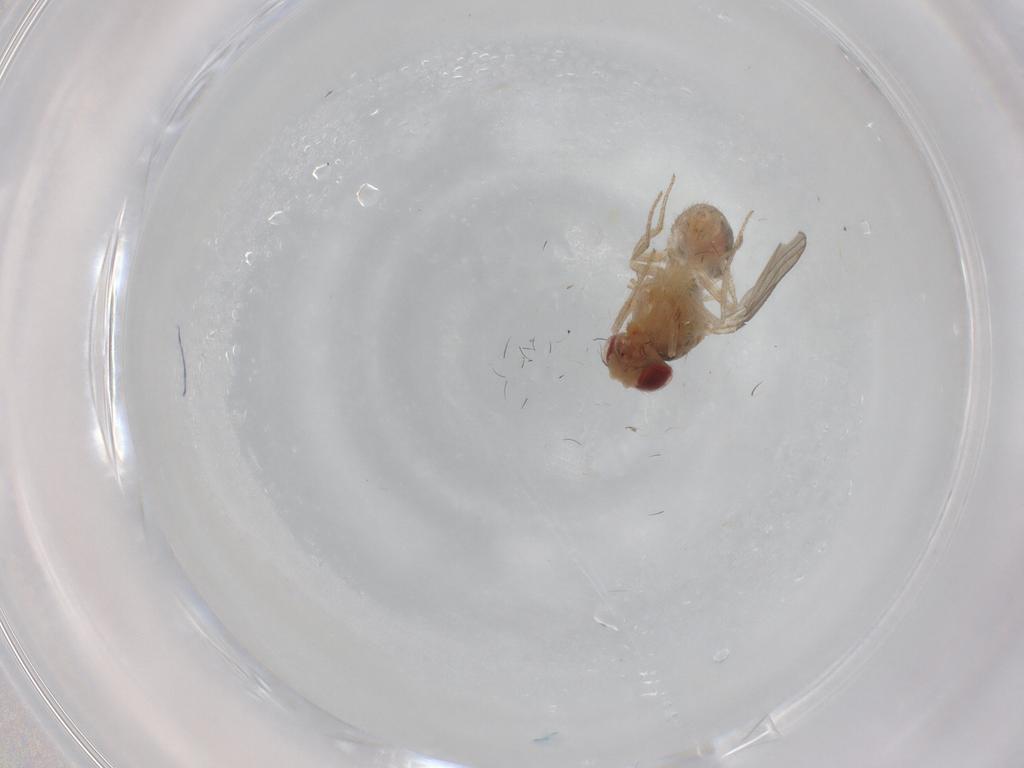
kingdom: Animalia
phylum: Arthropoda
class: Insecta
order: Diptera
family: Drosophilidae
